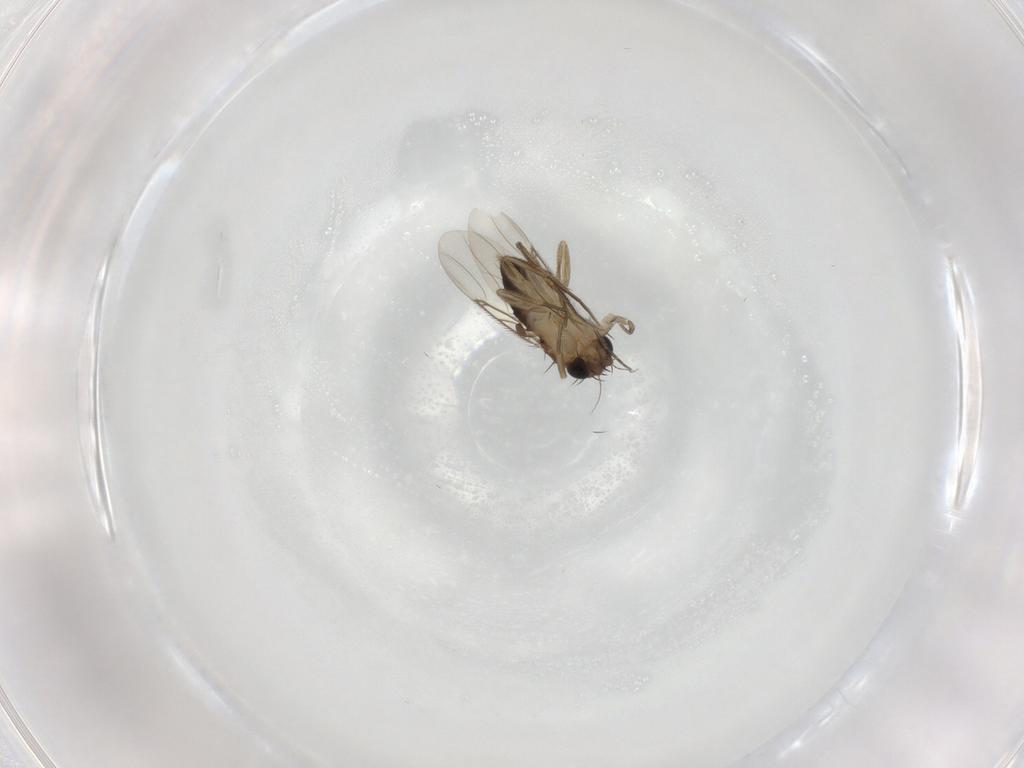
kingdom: Animalia
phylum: Arthropoda
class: Insecta
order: Diptera
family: Phoridae
